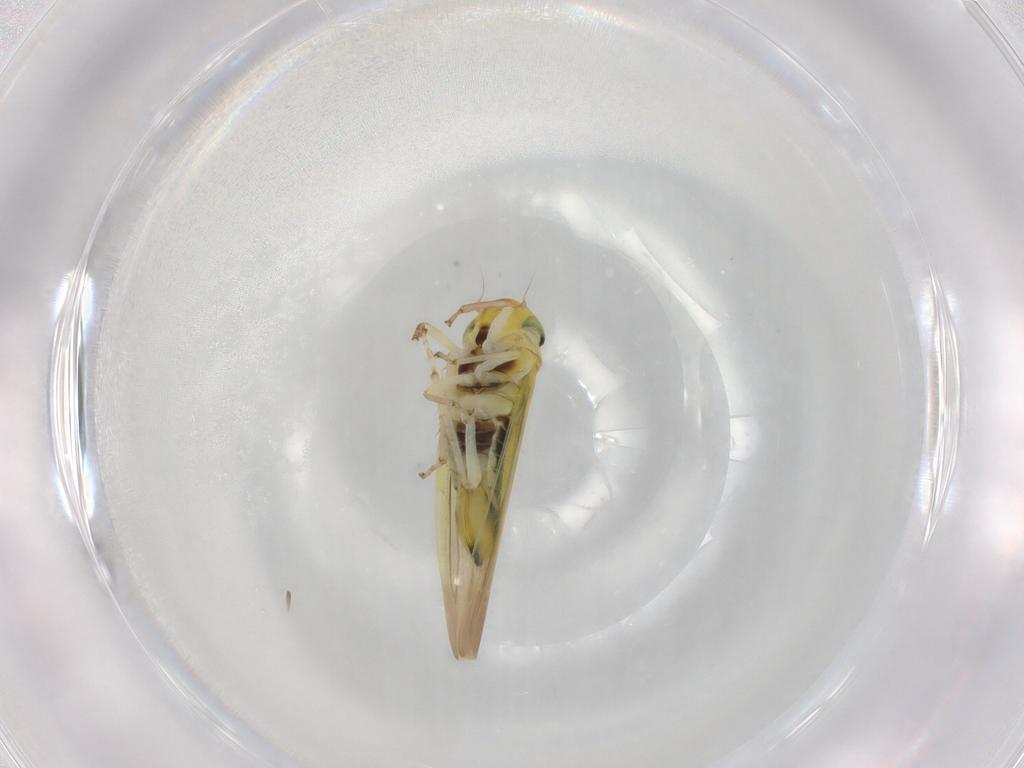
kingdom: Animalia
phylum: Arthropoda
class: Insecta
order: Hemiptera
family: Cicadellidae
